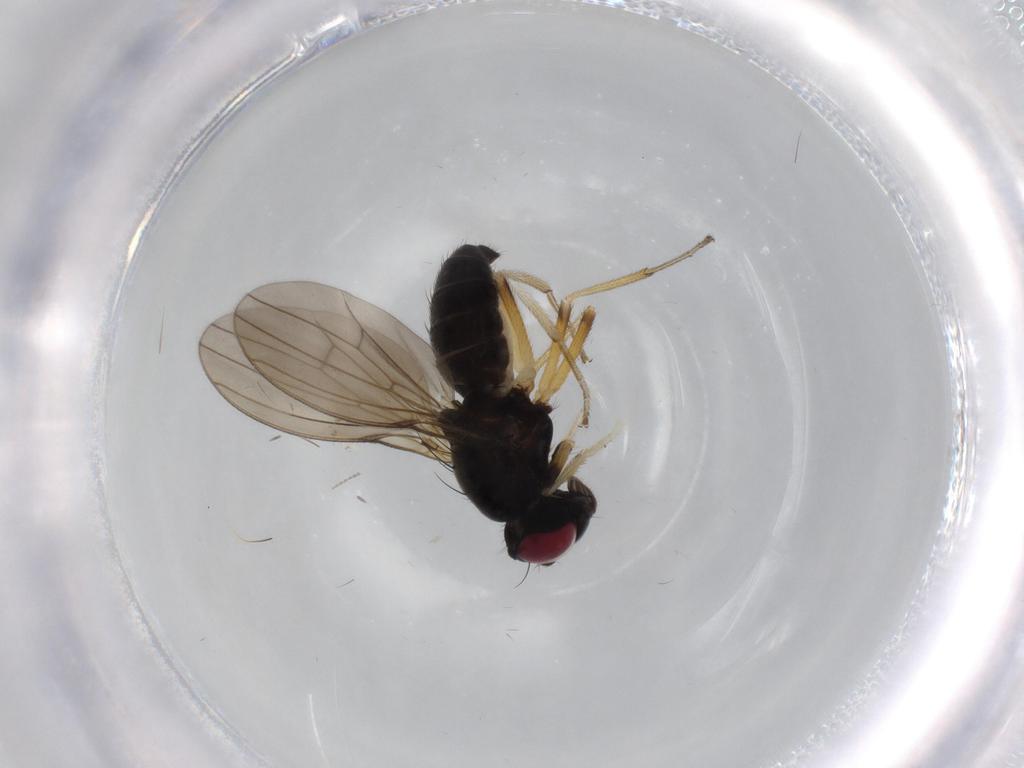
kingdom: Animalia
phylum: Arthropoda
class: Insecta
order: Diptera
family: Lauxaniidae
